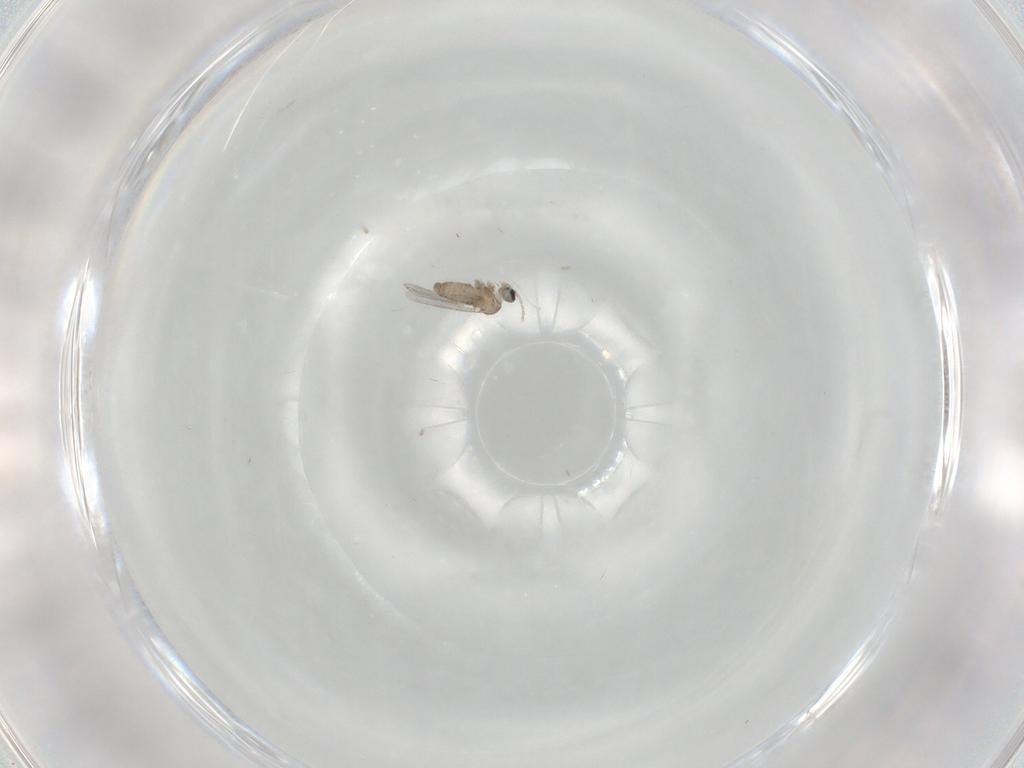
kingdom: Animalia
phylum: Arthropoda
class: Insecta
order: Diptera
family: Cecidomyiidae
